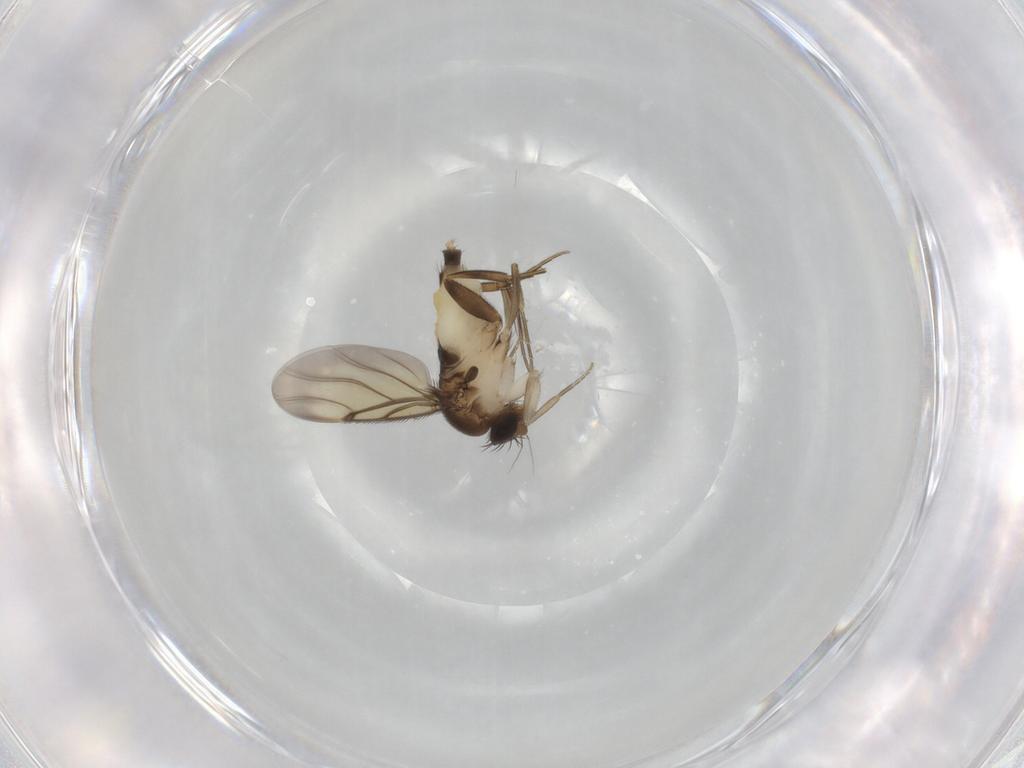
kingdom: Animalia
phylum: Arthropoda
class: Insecta
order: Diptera
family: Phoridae
